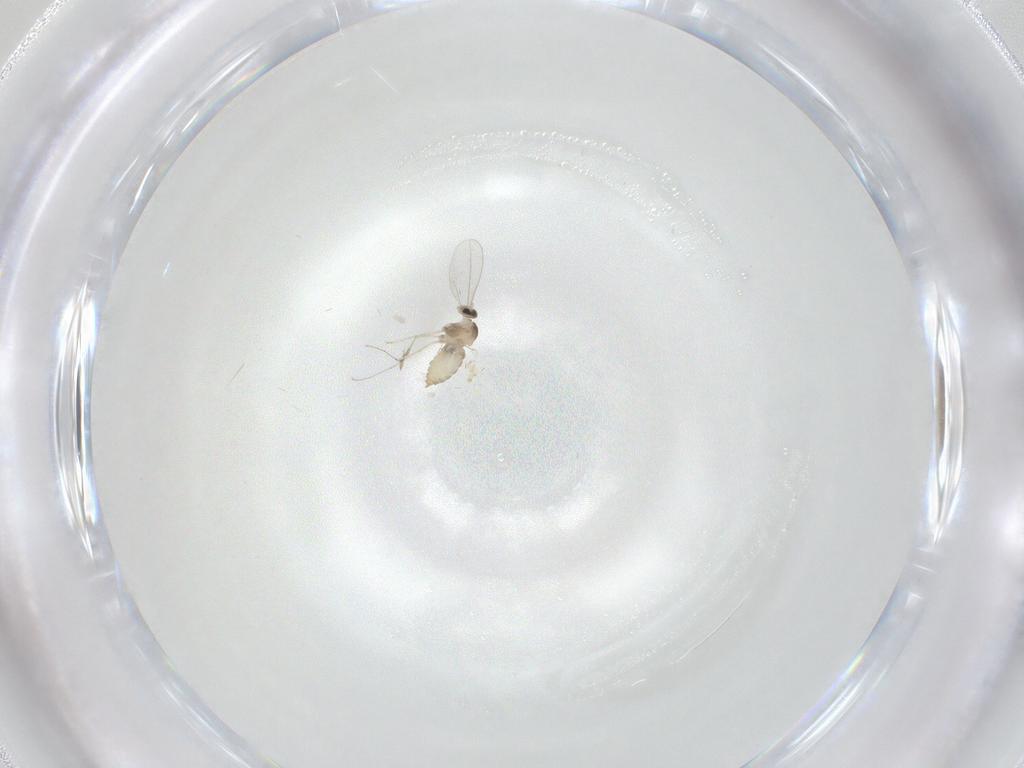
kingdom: Animalia
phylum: Arthropoda
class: Insecta
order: Diptera
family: Cecidomyiidae
